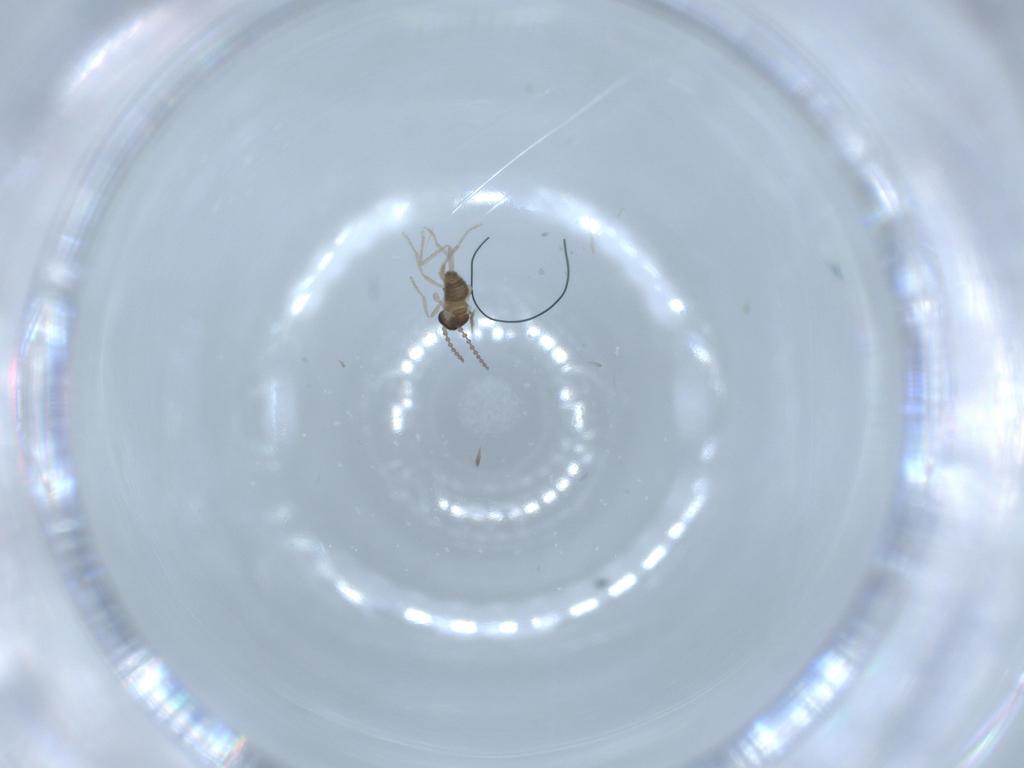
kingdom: Animalia
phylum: Arthropoda
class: Insecta
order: Diptera
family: Cecidomyiidae
